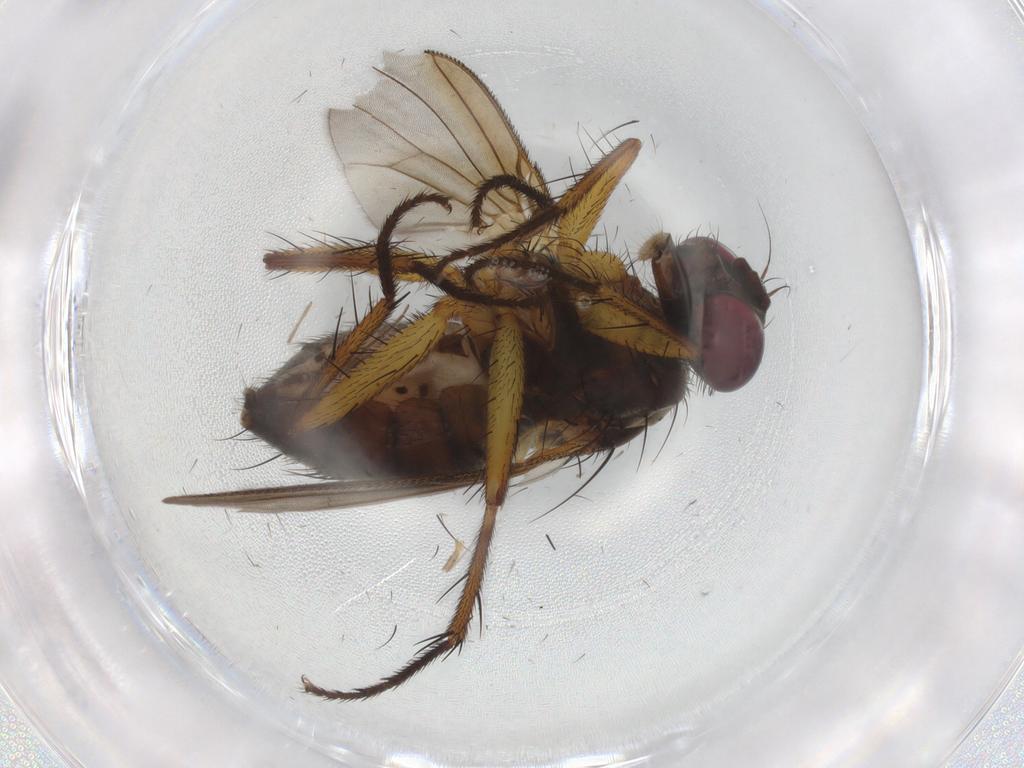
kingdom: Animalia
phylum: Arthropoda
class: Insecta
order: Diptera
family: Muscidae
